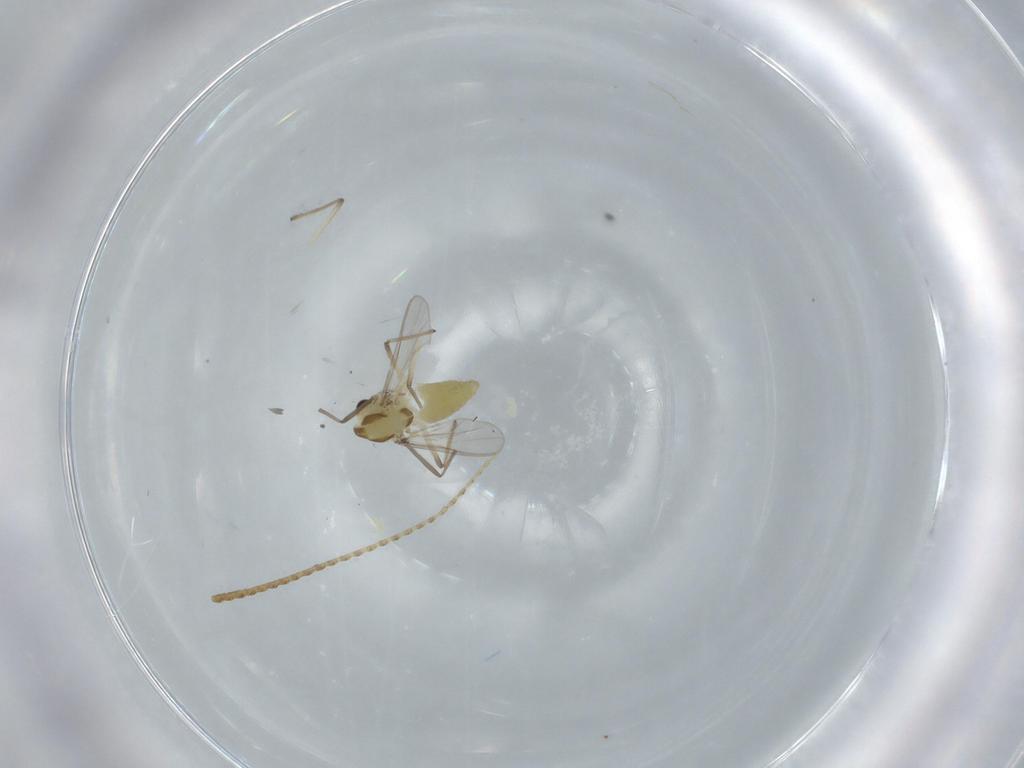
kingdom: Animalia
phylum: Arthropoda
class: Insecta
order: Diptera
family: Chironomidae
